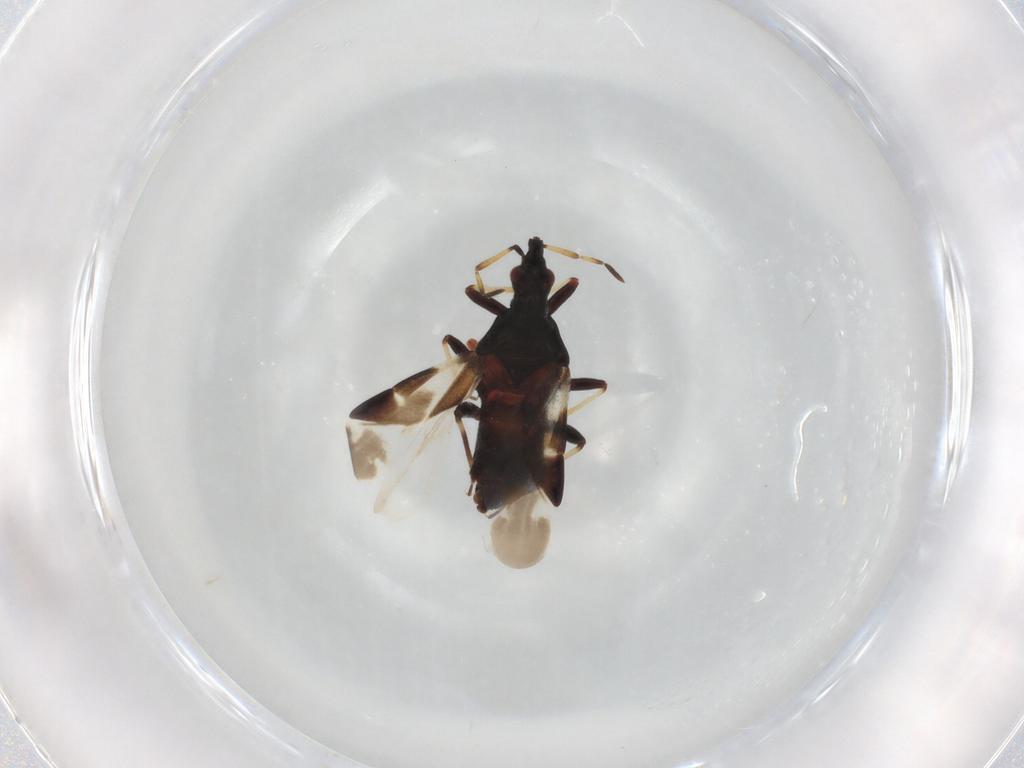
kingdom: Animalia
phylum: Arthropoda
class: Insecta
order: Hemiptera
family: Anthocoridae
